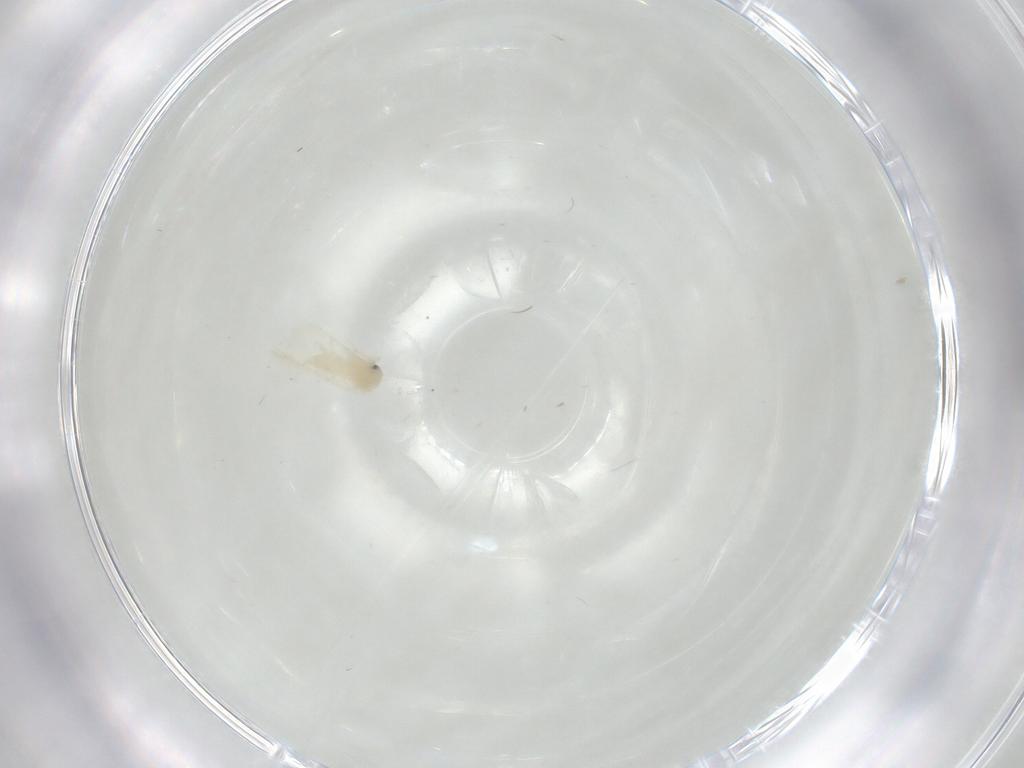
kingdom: Animalia
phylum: Arthropoda
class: Insecta
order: Hemiptera
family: Aleyrodidae
